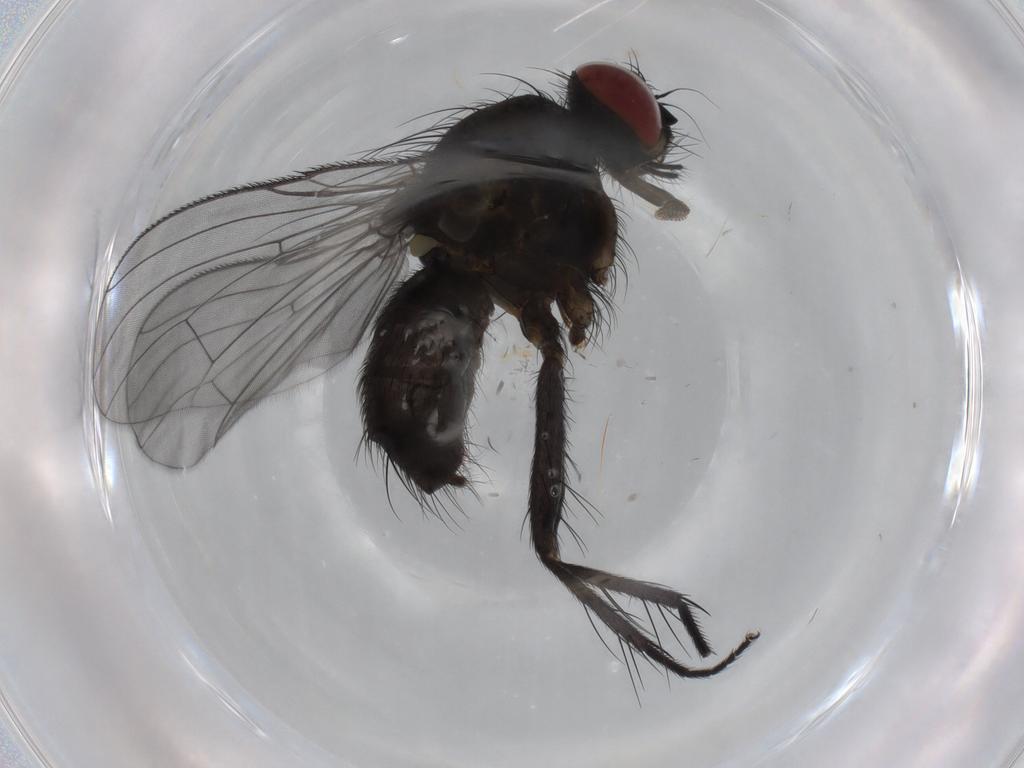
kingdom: Animalia
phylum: Arthropoda
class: Insecta
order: Diptera
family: Muscidae
